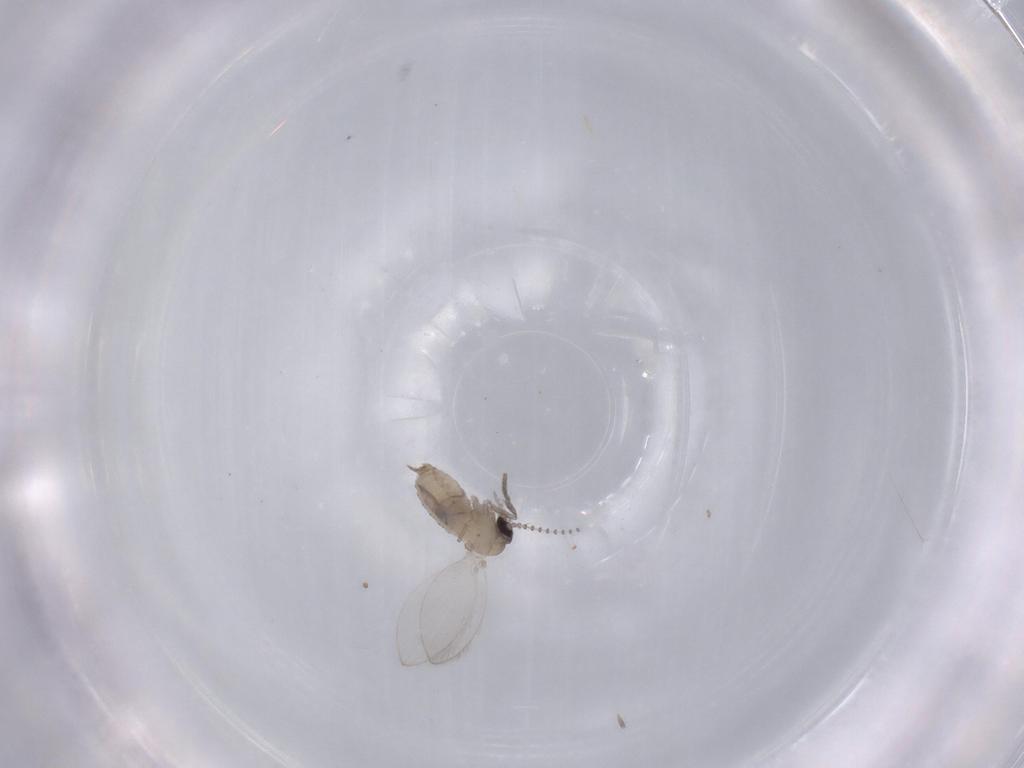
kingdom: Animalia
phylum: Arthropoda
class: Insecta
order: Diptera
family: Psychodidae
